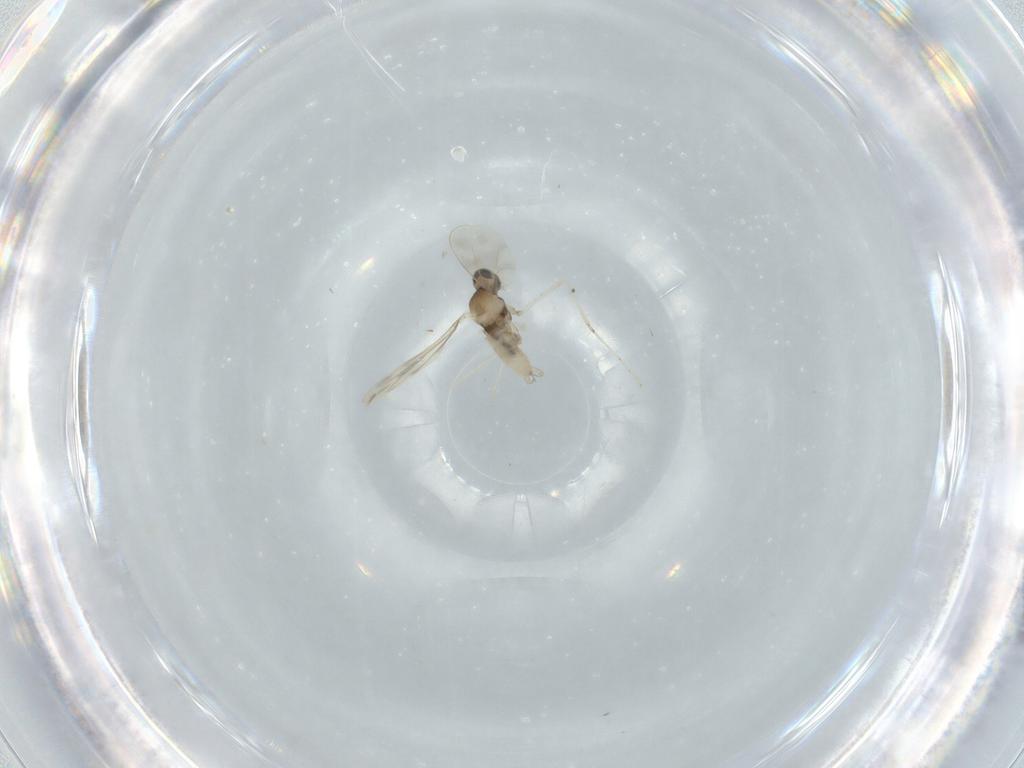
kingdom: Animalia
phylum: Arthropoda
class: Insecta
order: Diptera
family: Cecidomyiidae
